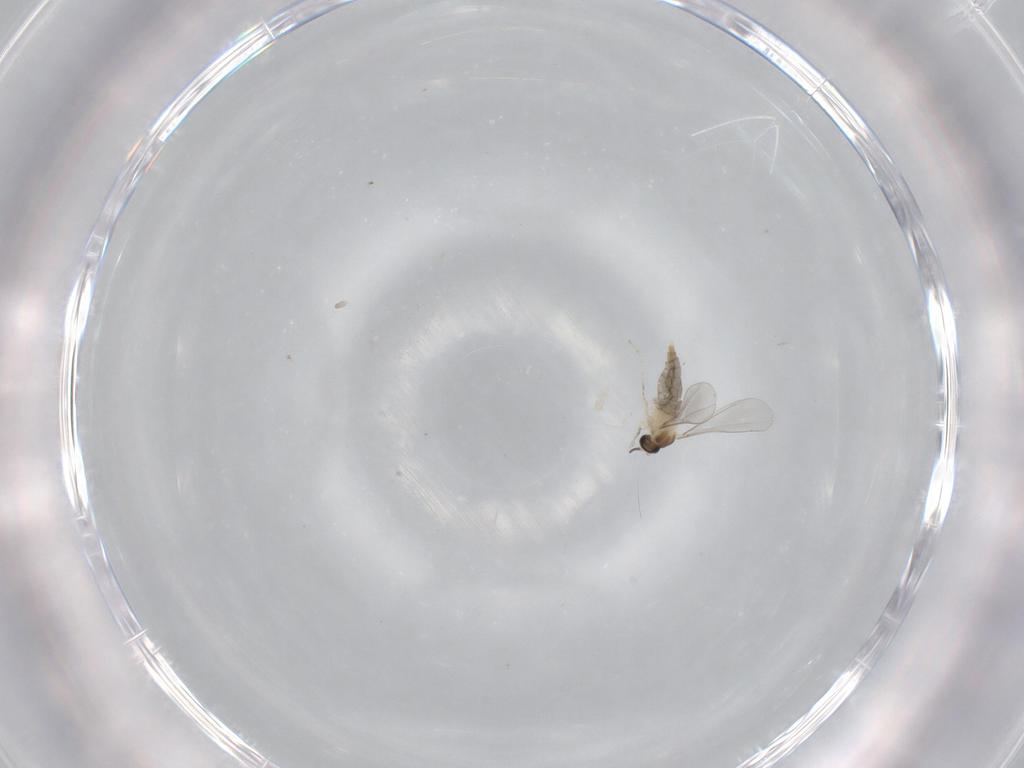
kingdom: Animalia
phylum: Arthropoda
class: Insecta
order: Diptera
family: Cecidomyiidae
